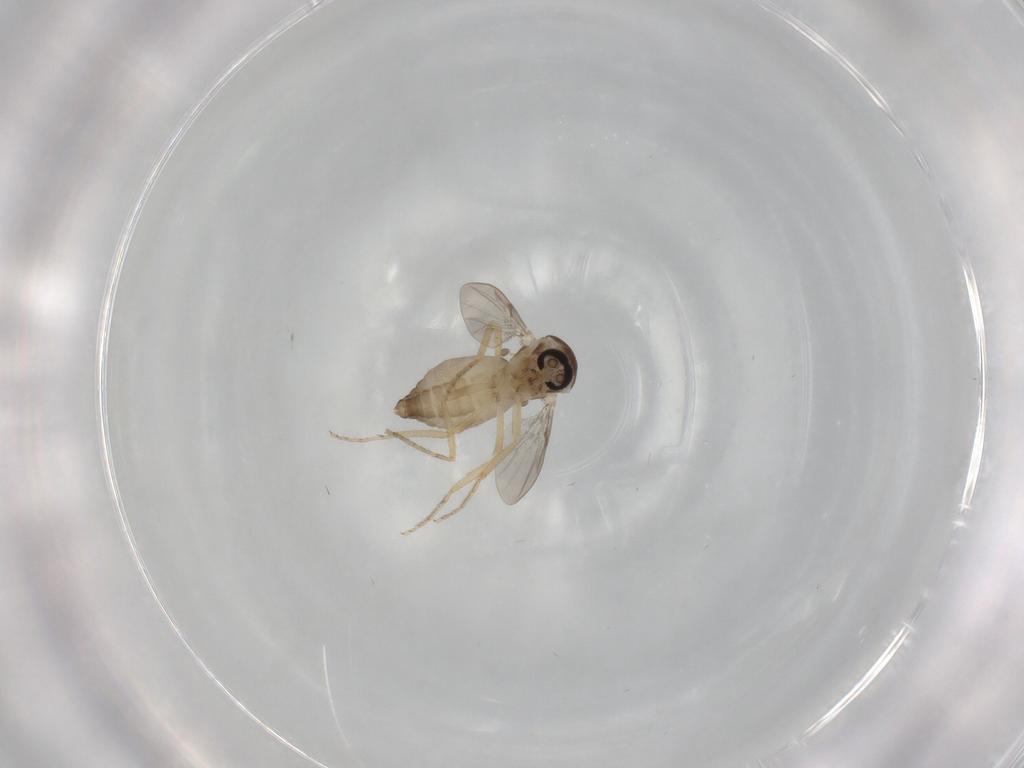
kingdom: Animalia
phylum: Arthropoda
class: Insecta
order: Diptera
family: Ceratopogonidae
